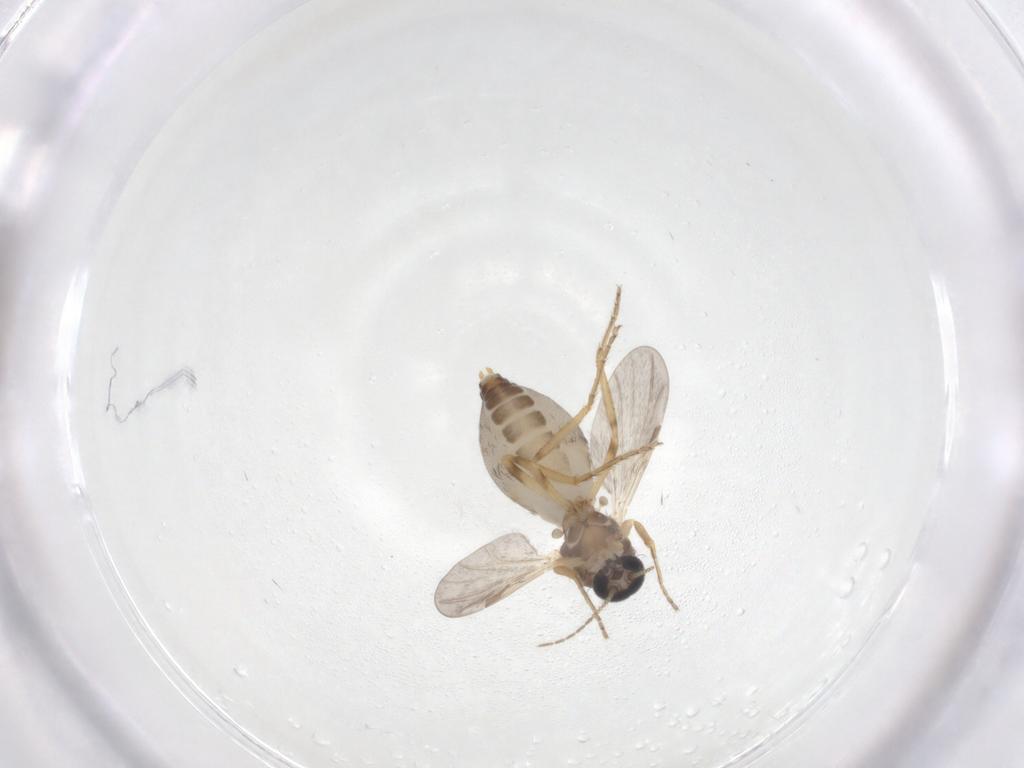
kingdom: Animalia
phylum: Arthropoda
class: Insecta
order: Diptera
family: Ceratopogonidae
